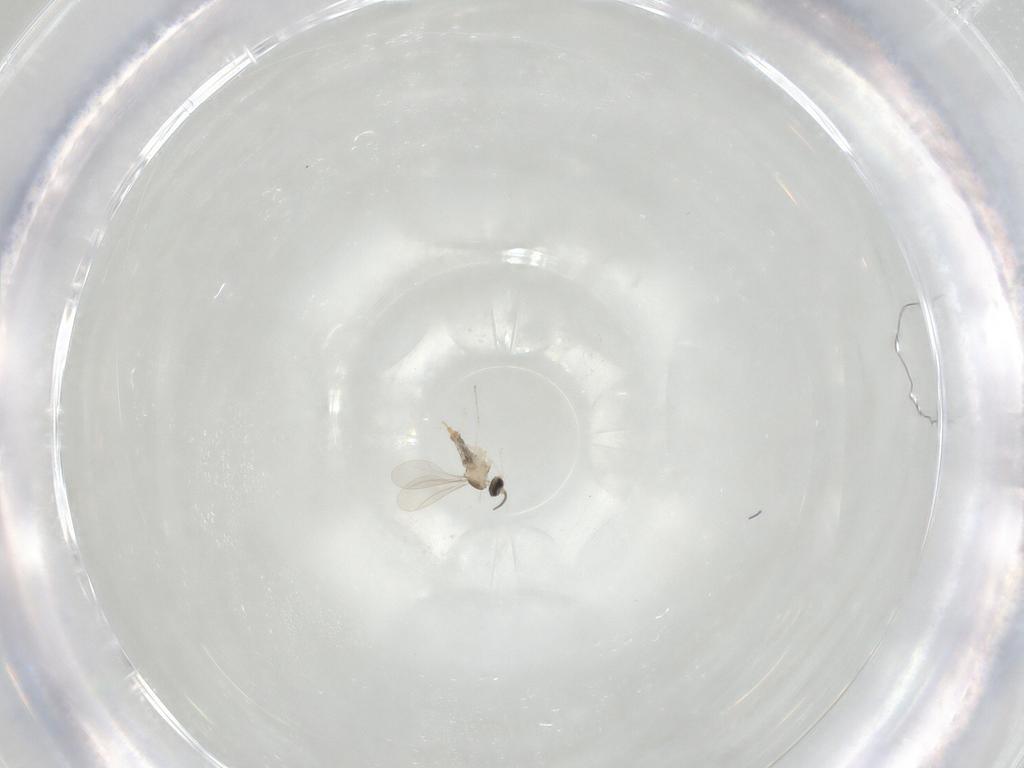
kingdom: Animalia
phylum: Arthropoda
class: Insecta
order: Diptera
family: Cecidomyiidae
